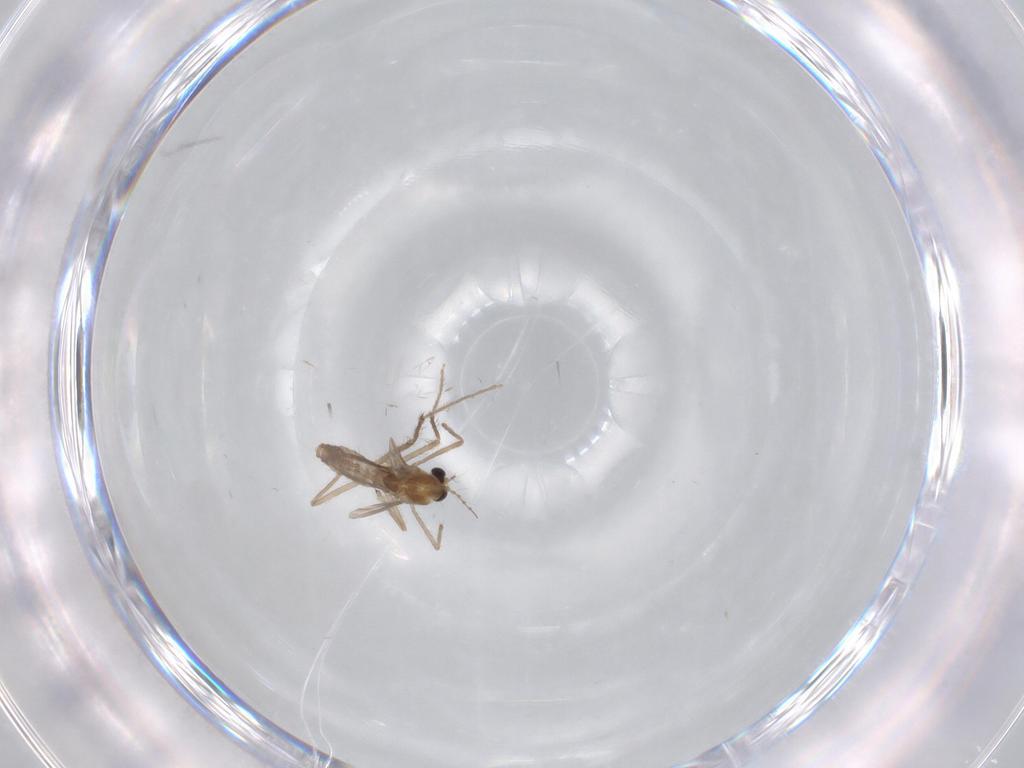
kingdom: Animalia
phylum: Arthropoda
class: Insecta
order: Diptera
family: Chironomidae
